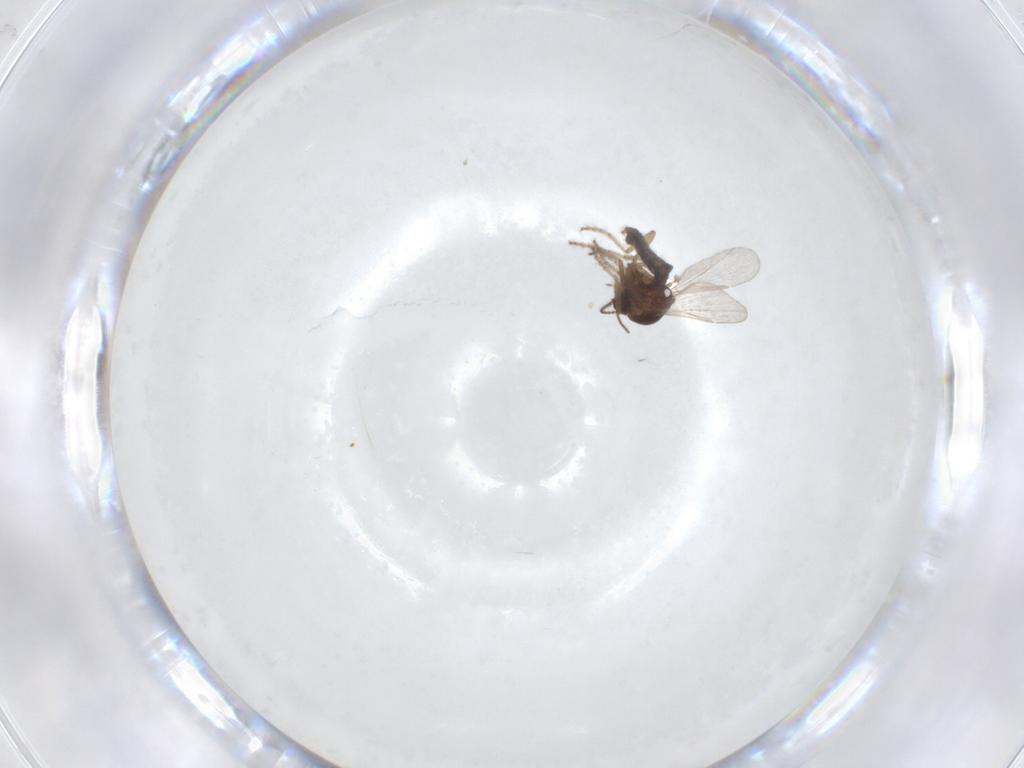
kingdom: Animalia
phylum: Arthropoda
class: Insecta
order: Diptera
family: Ceratopogonidae
